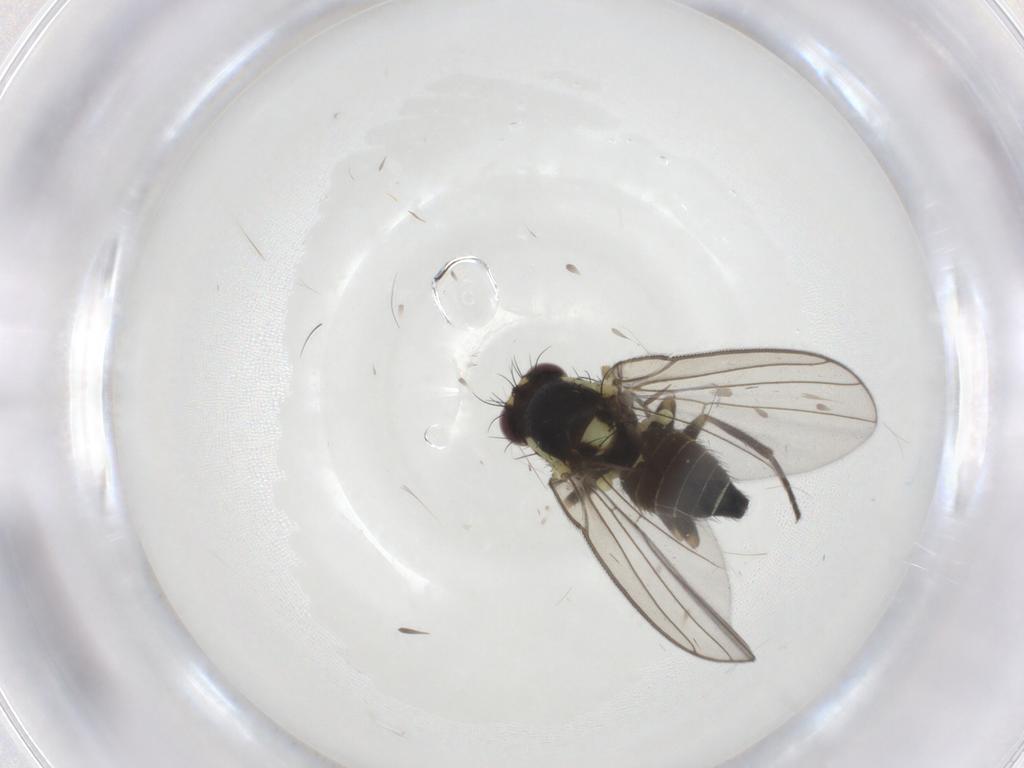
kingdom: Animalia
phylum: Arthropoda
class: Insecta
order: Diptera
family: Agromyzidae
